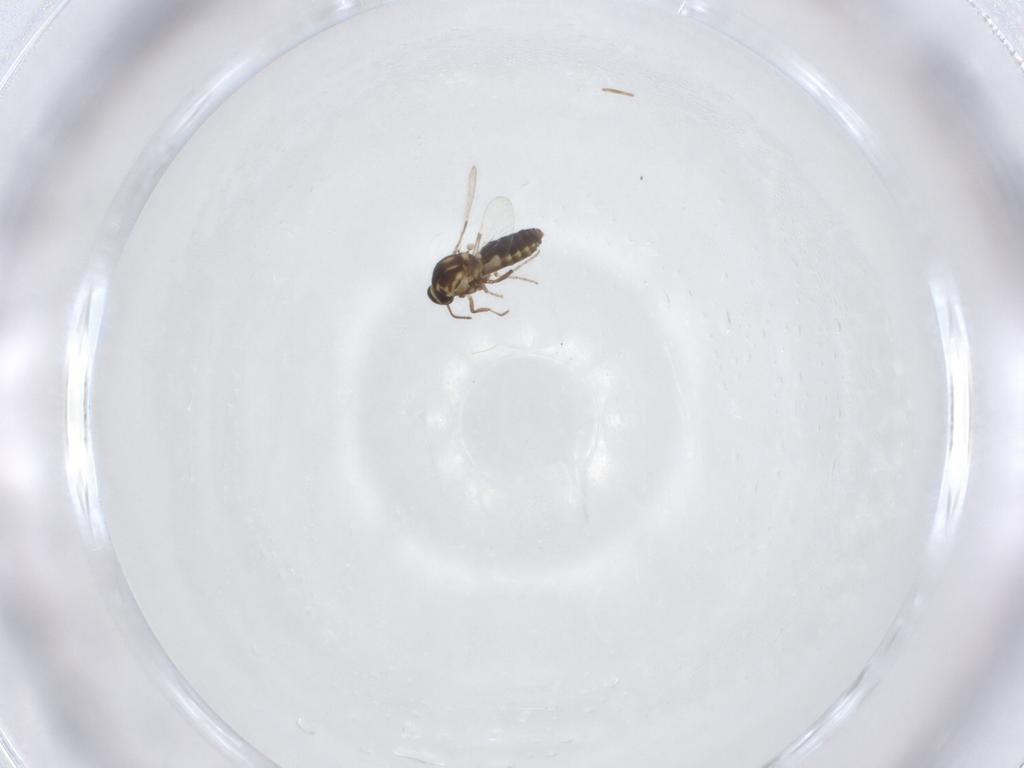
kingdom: Animalia
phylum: Arthropoda
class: Insecta
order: Diptera
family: Ceratopogonidae
